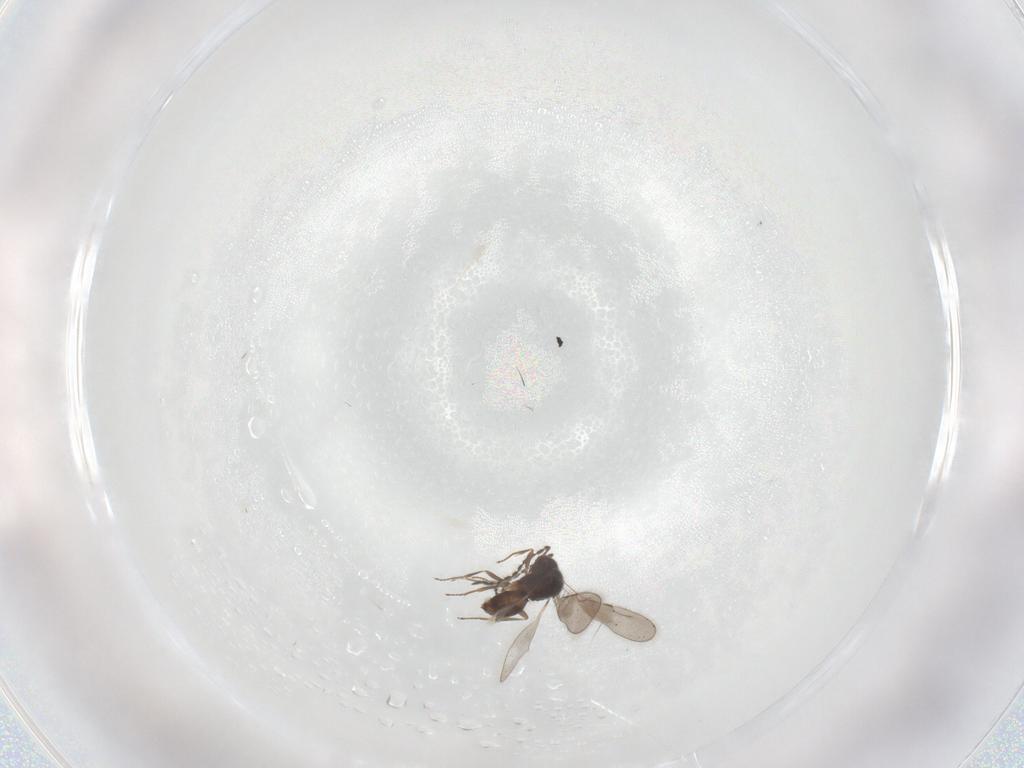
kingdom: Animalia
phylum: Arthropoda
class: Insecta
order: Hymenoptera
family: Ceraphronidae
